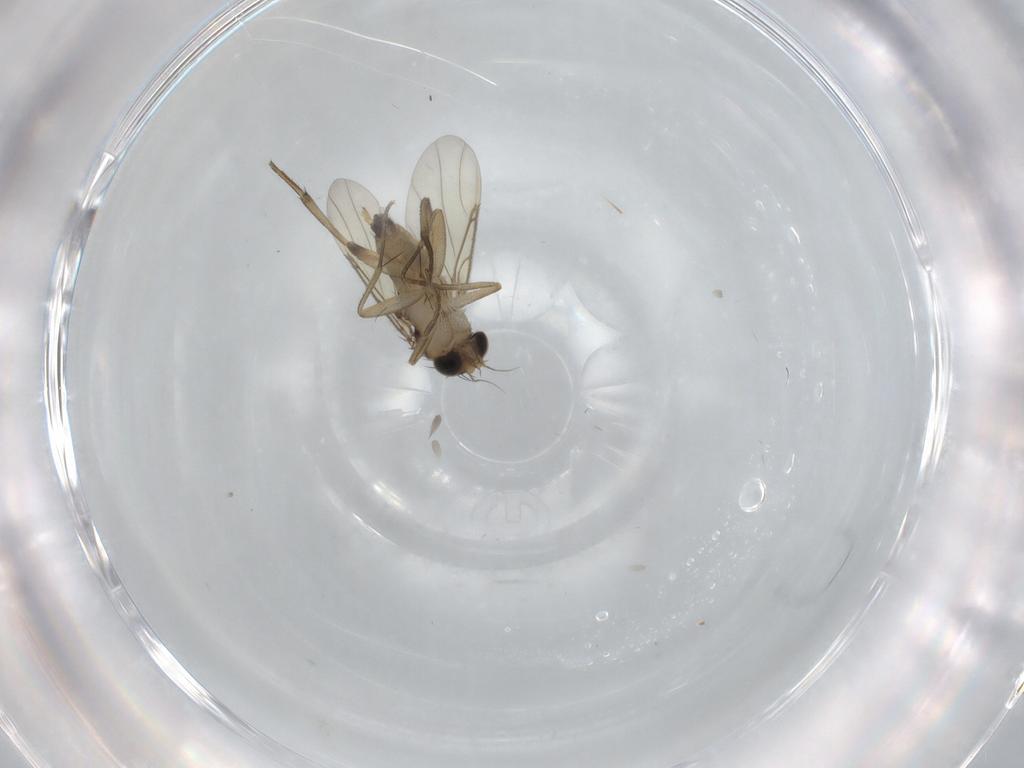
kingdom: Animalia
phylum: Arthropoda
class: Insecta
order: Diptera
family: Phoridae
